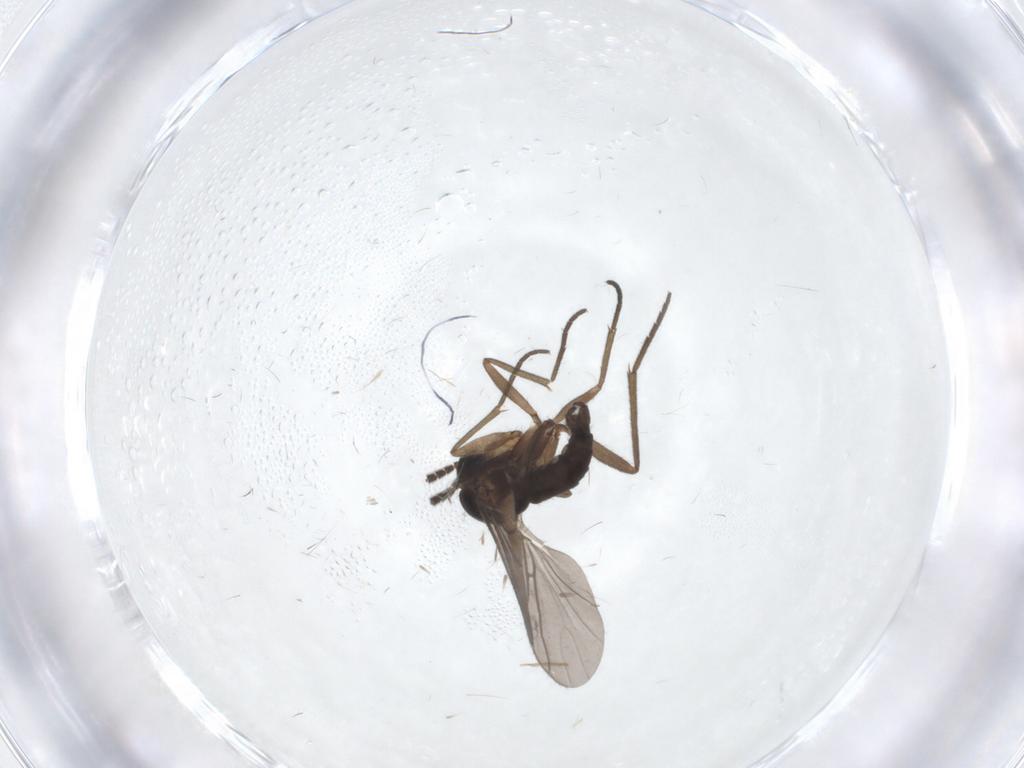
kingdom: Animalia
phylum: Arthropoda
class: Insecta
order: Diptera
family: Sciaridae
